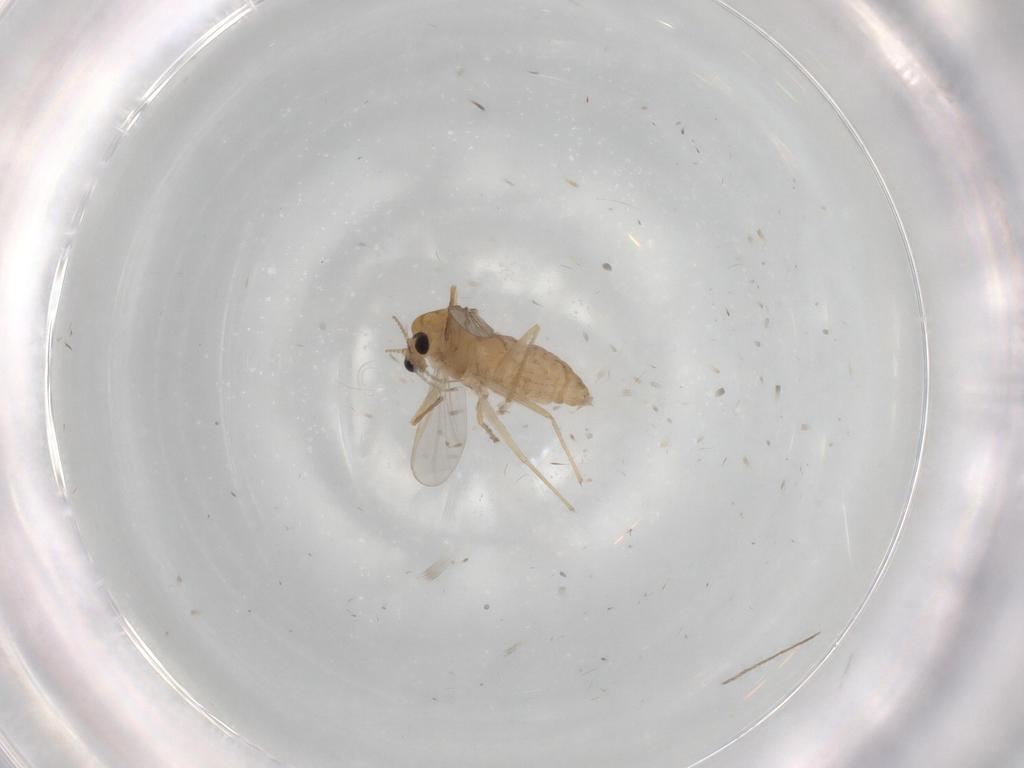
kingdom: Animalia
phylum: Arthropoda
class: Insecta
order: Diptera
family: Chironomidae
